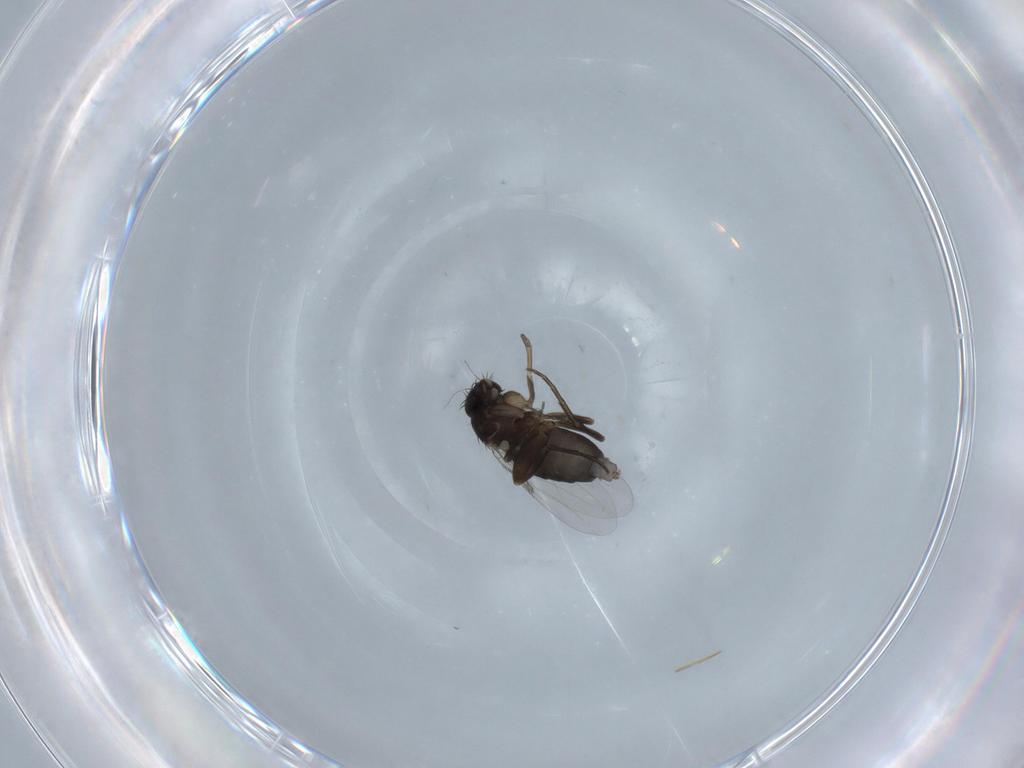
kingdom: Animalia
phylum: Arthropoda
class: Insecta
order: Diptera
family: Phoridae
